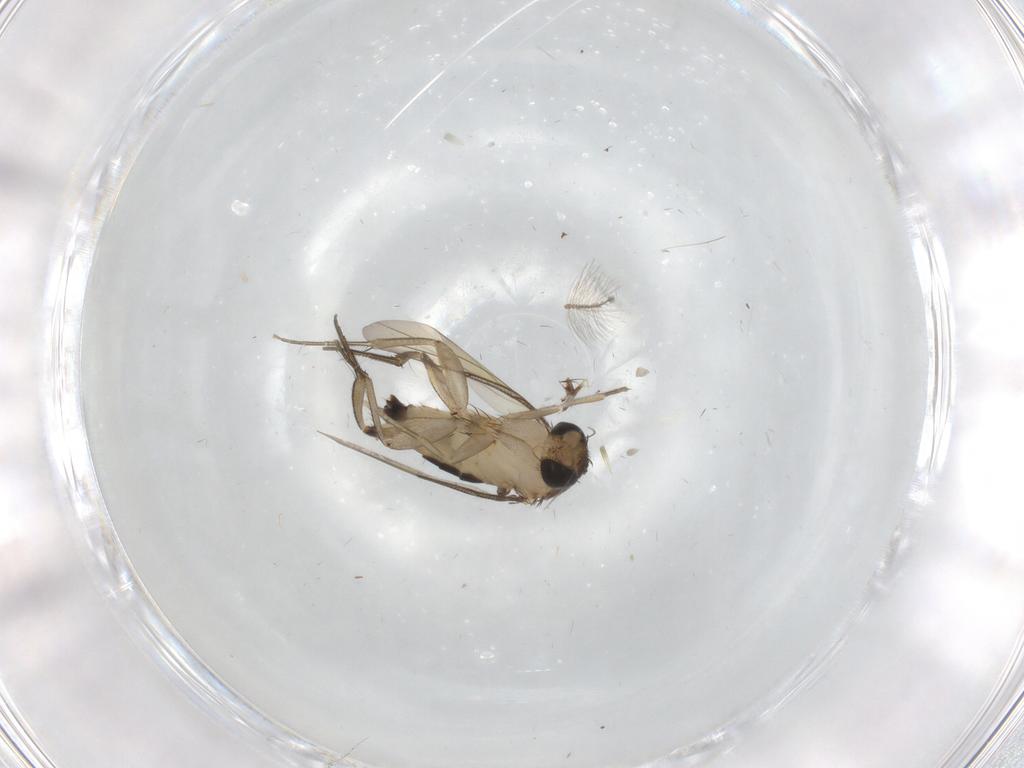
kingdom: Animalia
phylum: Arthropoda
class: Insecta
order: Diptera
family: Phoridae
